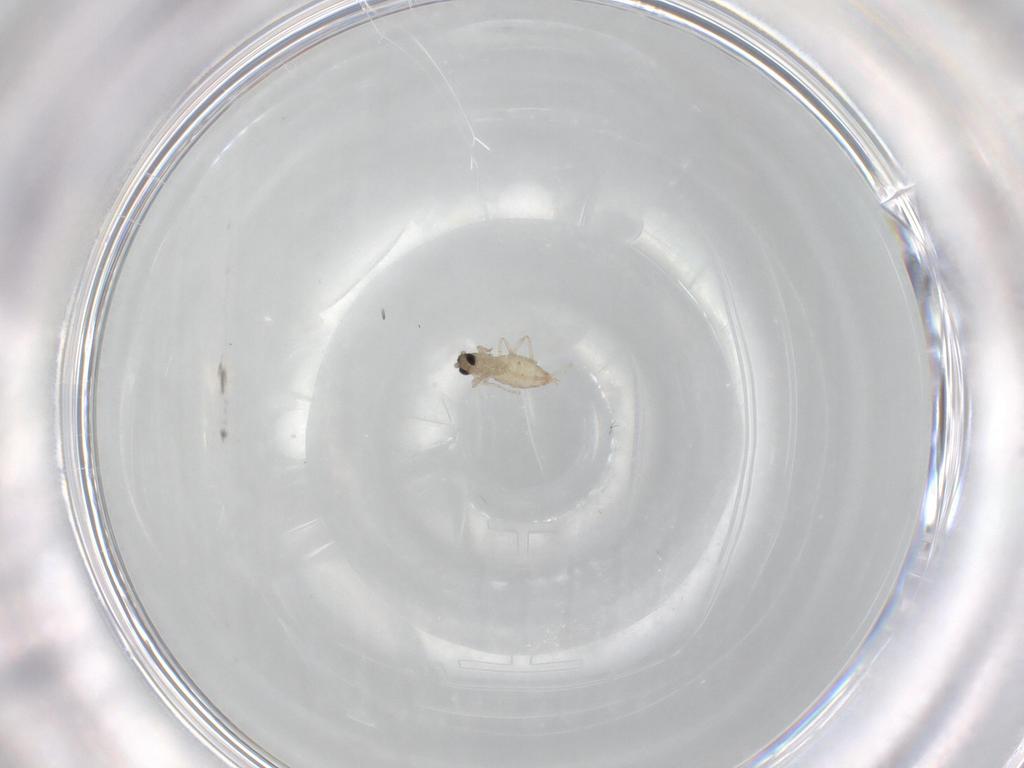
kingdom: Animalia
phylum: Arthropoda
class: Insecta
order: Diptera
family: Cecidomyiidae
